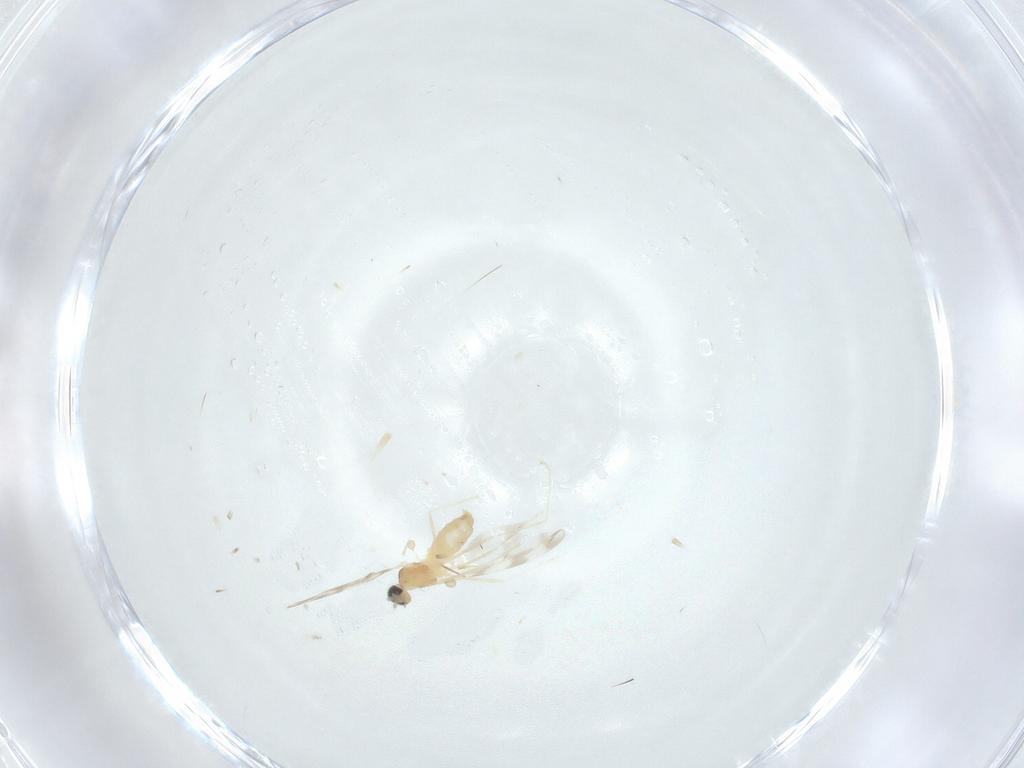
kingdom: Animalia
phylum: Arthropoda
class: Insecta
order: Diptera
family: Cecidomyiidae
